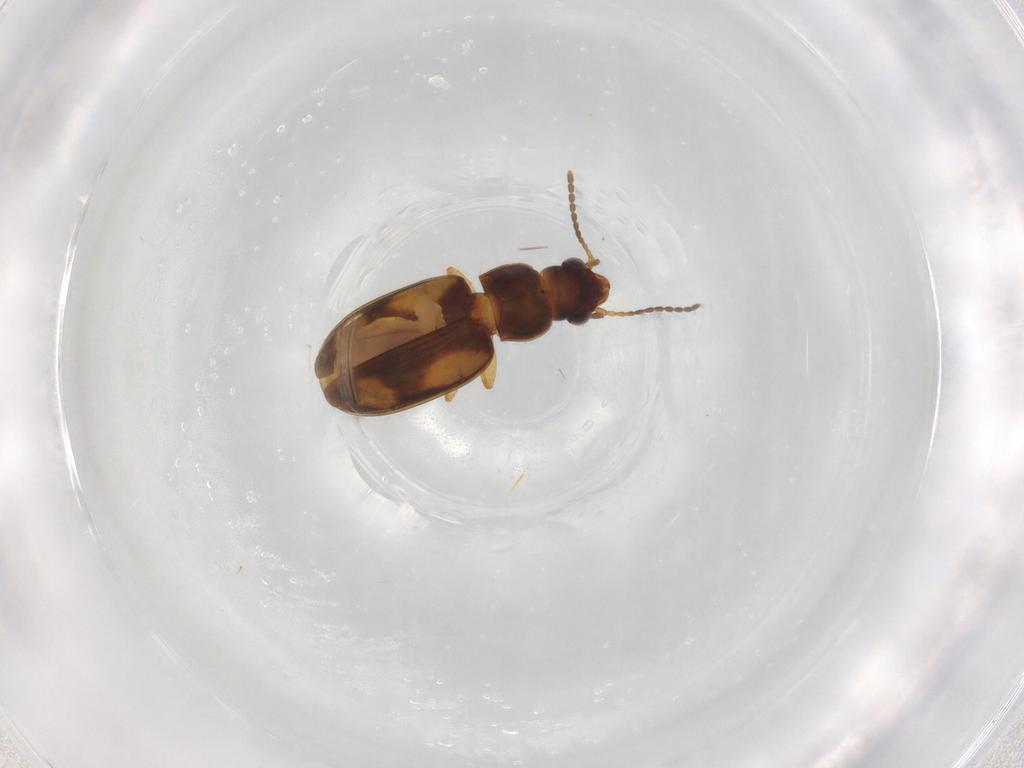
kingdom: Animalia
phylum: Arthropoda
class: Insecta
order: Coleoptera
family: Carabidae
